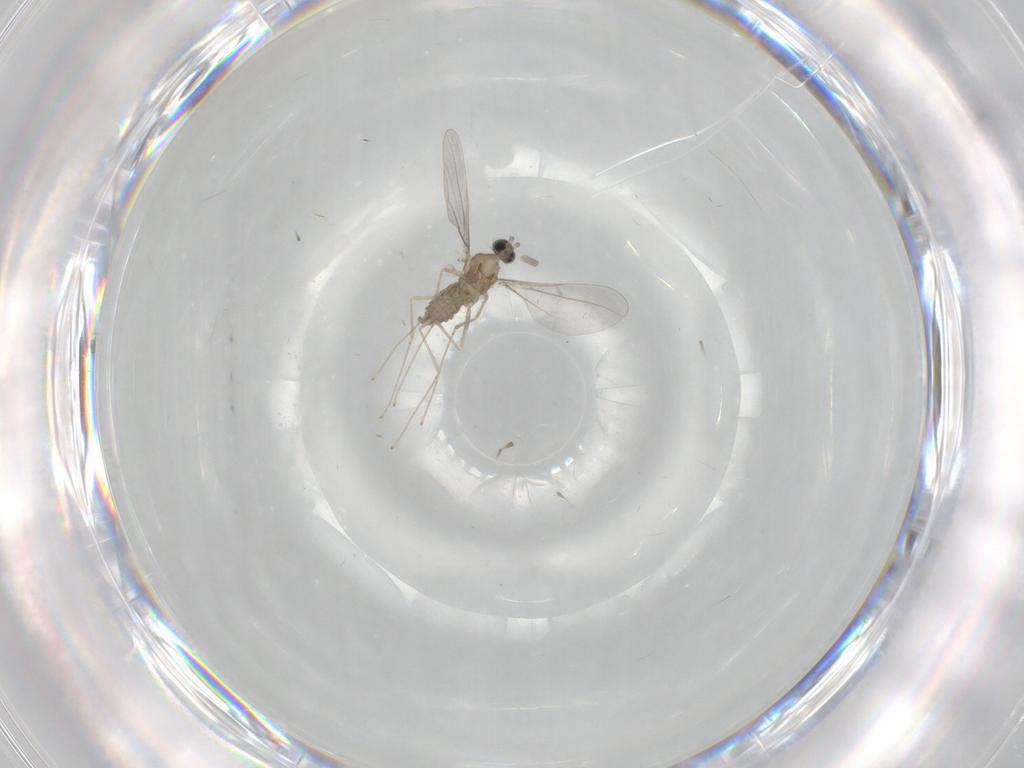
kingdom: Animalia
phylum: Arthropoda
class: Insecta
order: Diptera
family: Cecidomyiidae
